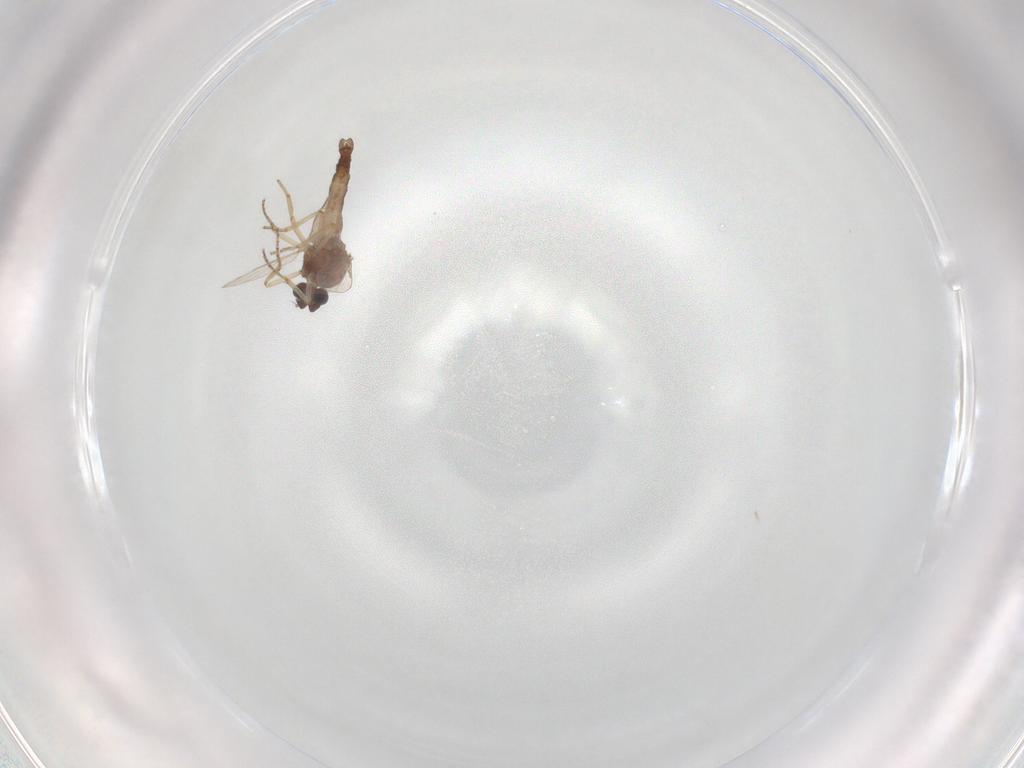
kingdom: Animalia
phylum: Arthropoda
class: Insecta
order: Diptera
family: Ceratopogonidae
